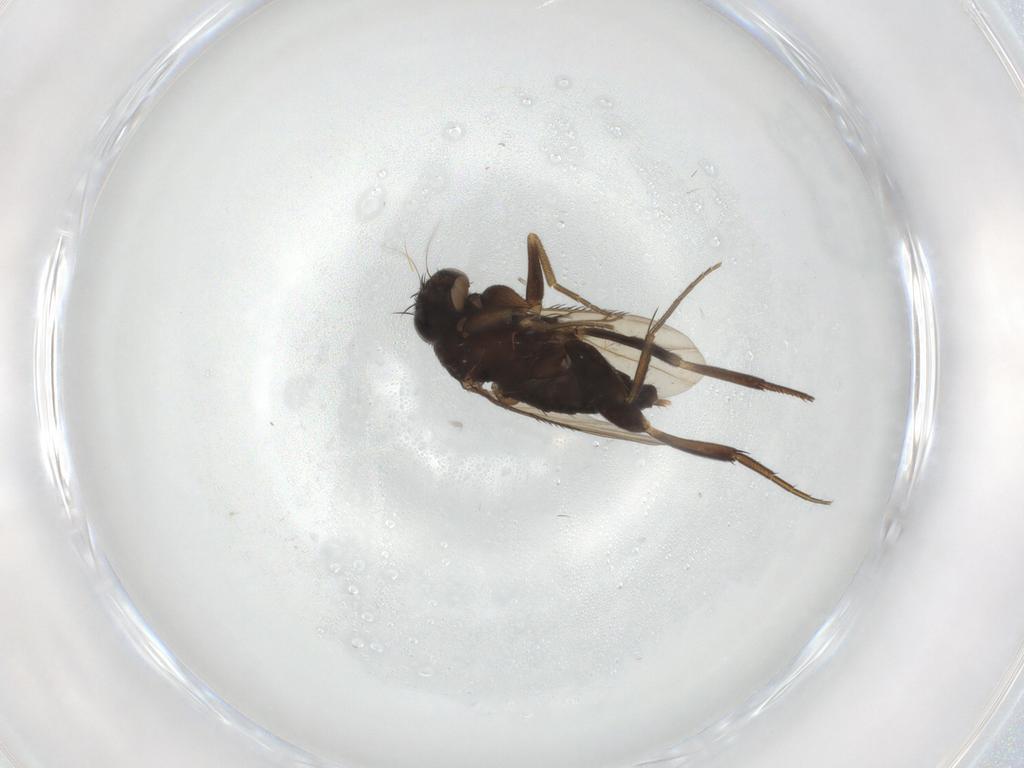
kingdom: Animalia
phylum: Arthropoda
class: Insecta
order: Diptera
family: Phoridae
